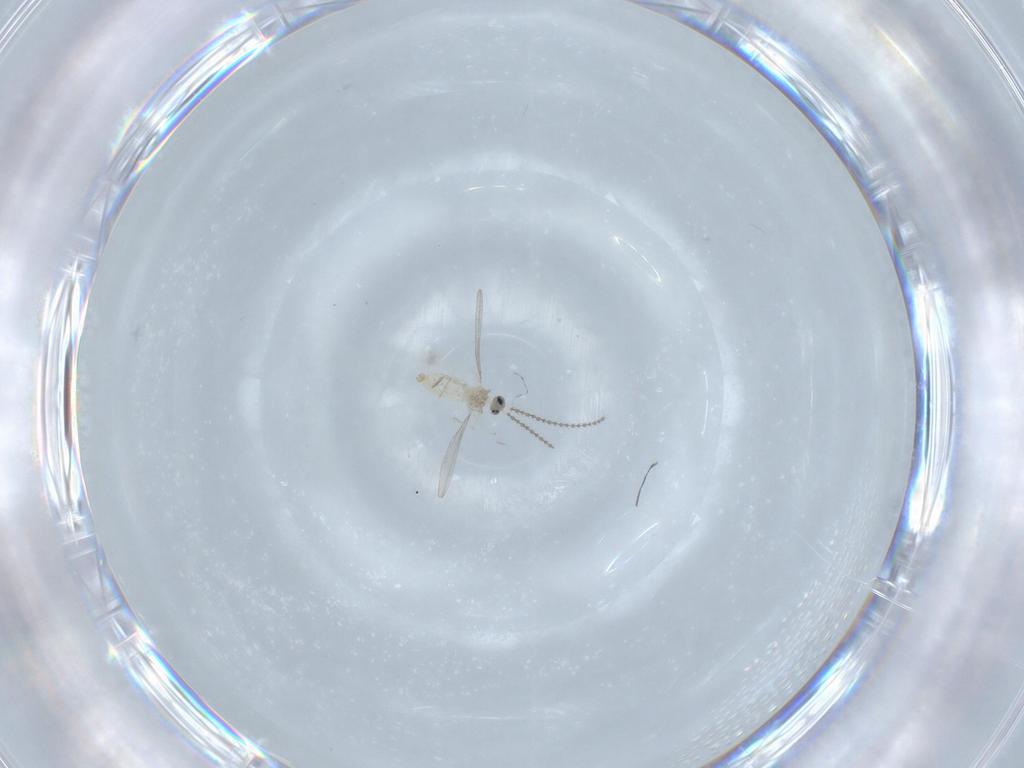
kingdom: Animalia
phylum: Arthropoda
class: Insecta
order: Diptera
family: Cecidomyiidae
